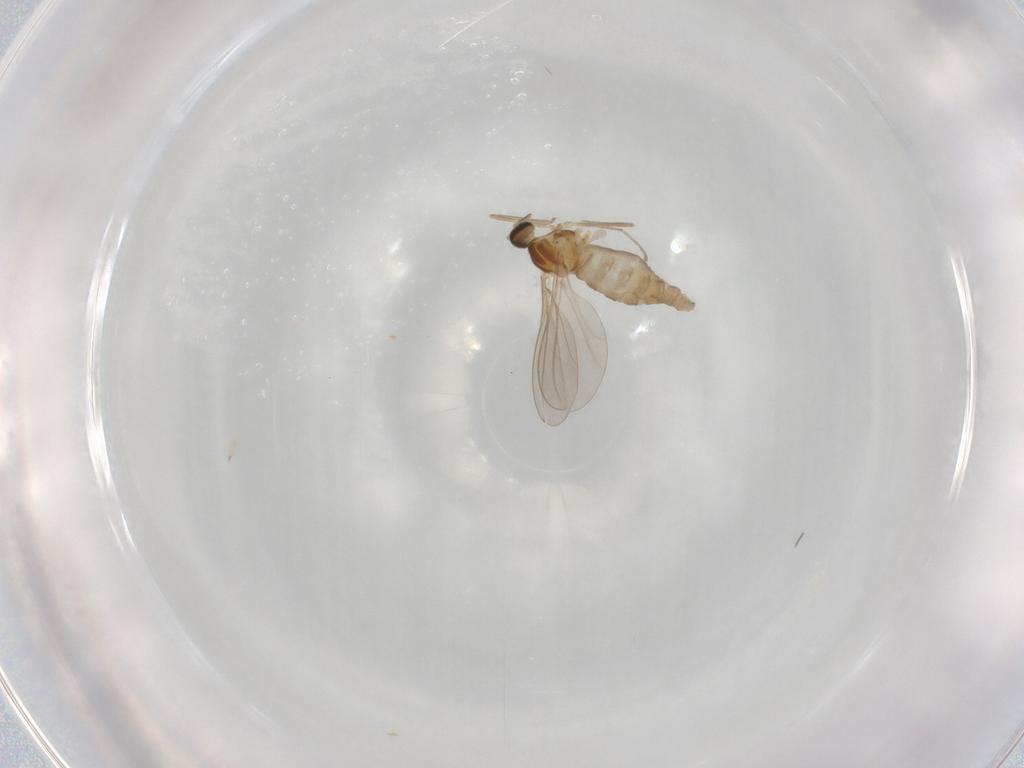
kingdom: Animalia
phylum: Arthropoda
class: Insecta
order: Diptera
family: Cecidomyiidae
